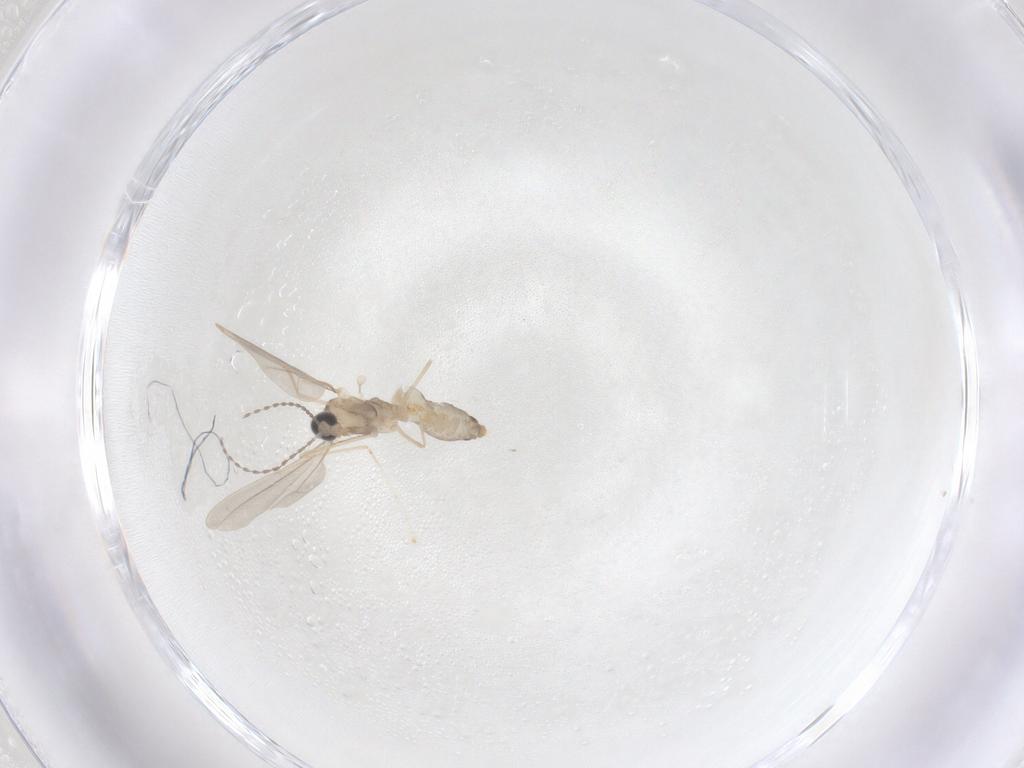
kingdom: Animalia
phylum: Arthropoda
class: Insecta
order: Diptera
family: Cecidomyiidae
